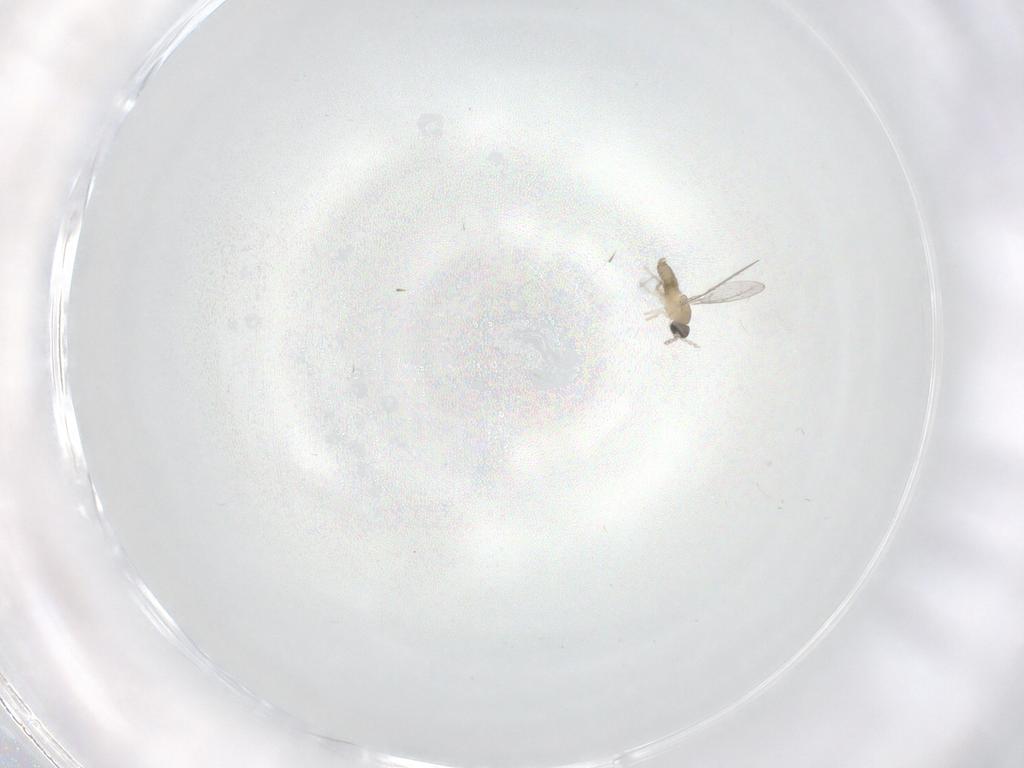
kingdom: Animalia
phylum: Arthropoda
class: Insecta
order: Diptera
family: Cecidomyiidae
